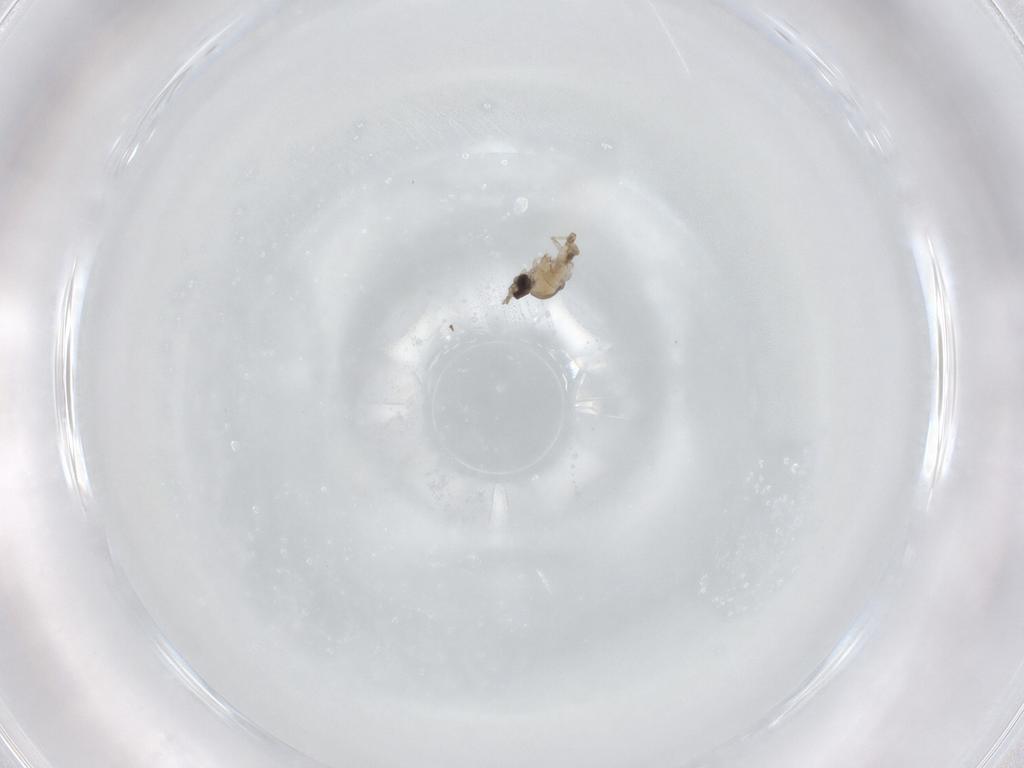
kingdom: Animalia
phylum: Arthropoda
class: Insecta
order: Diptera
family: Cecidomyiidae
